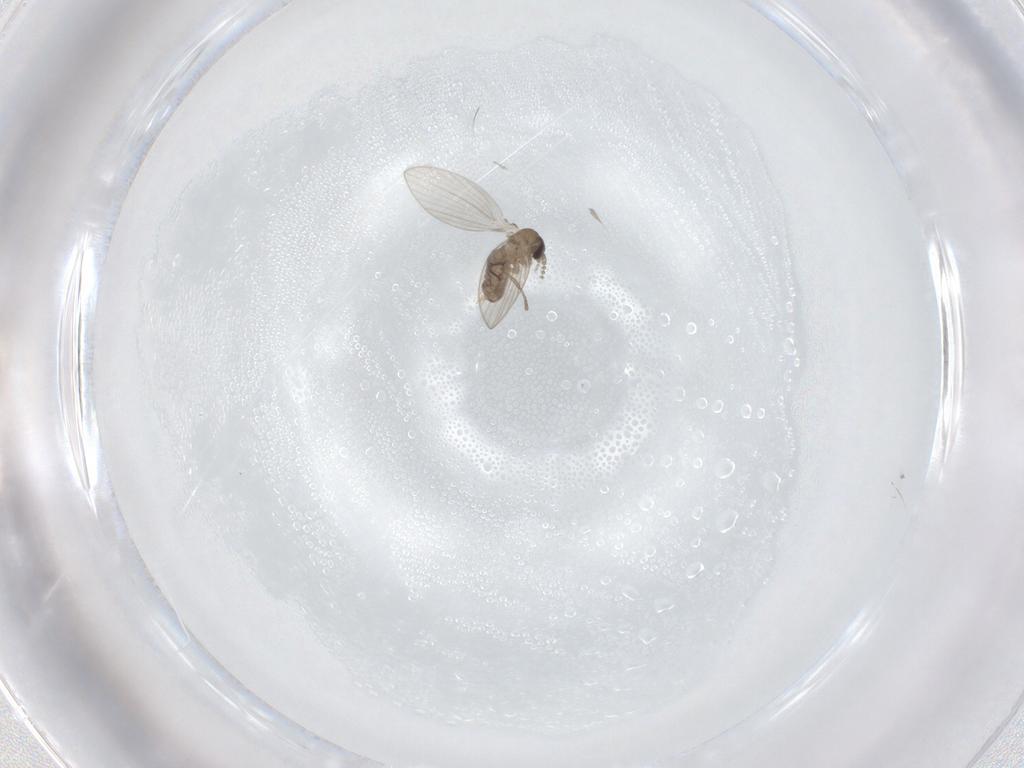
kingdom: Animalia
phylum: Arthropoda
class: Insecta
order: Diptera
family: Psychodidae
